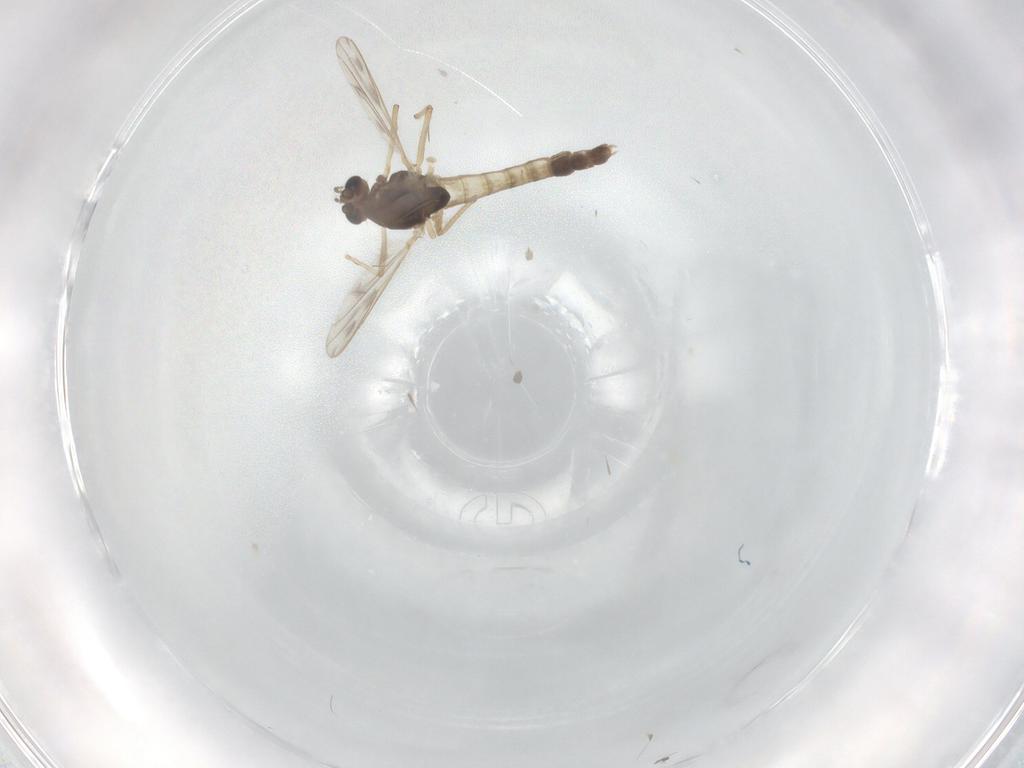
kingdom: Animalia
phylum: Arthropoda
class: Insecta
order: Diptera
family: Chironomidae
